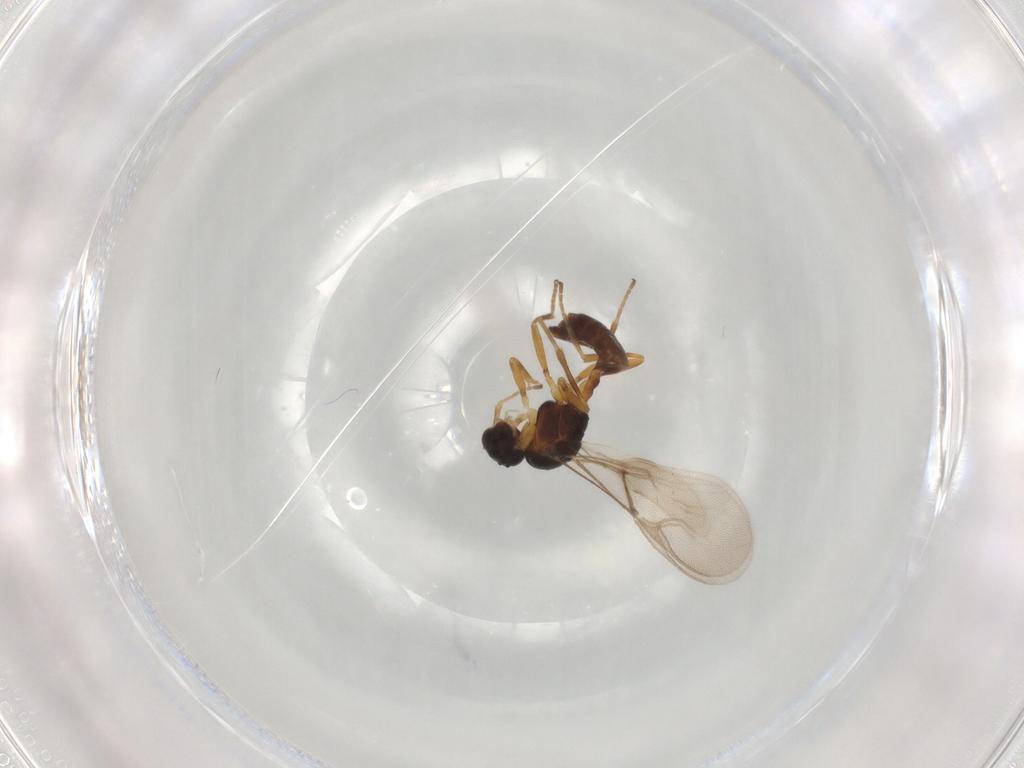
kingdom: Animalia
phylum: Arthropoda
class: Insecta
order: Hymenoptera
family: Braconidae
